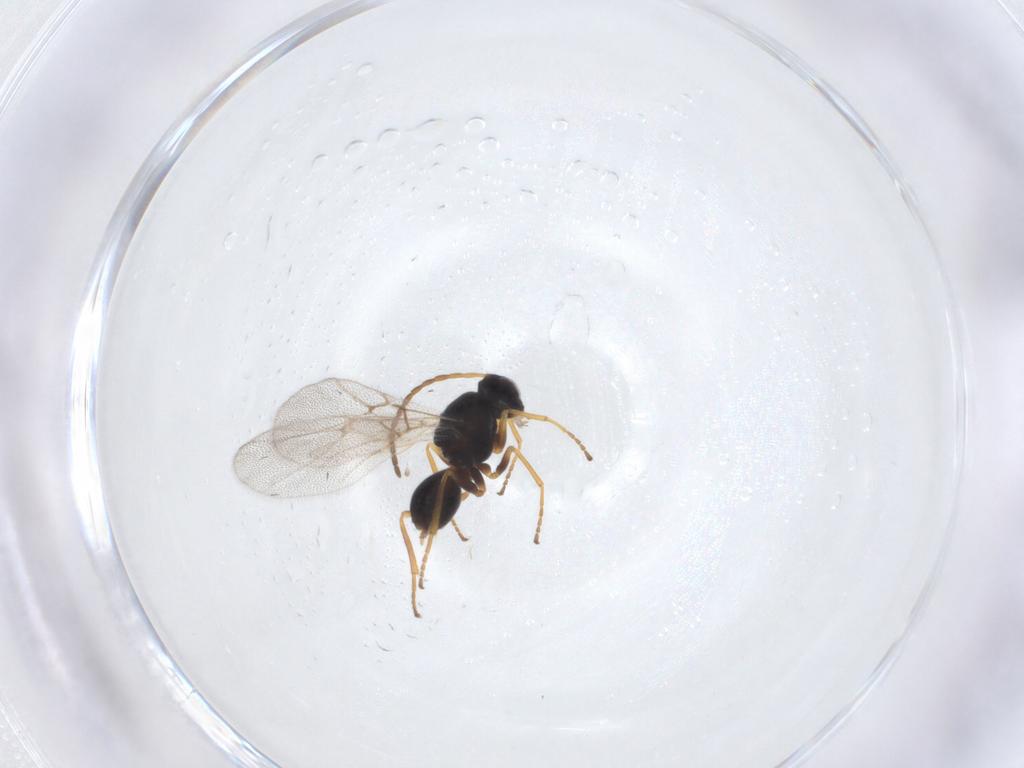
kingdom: Animalia
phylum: Arthropoda
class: Insecta
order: Hymenoptera
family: Cynipidae
